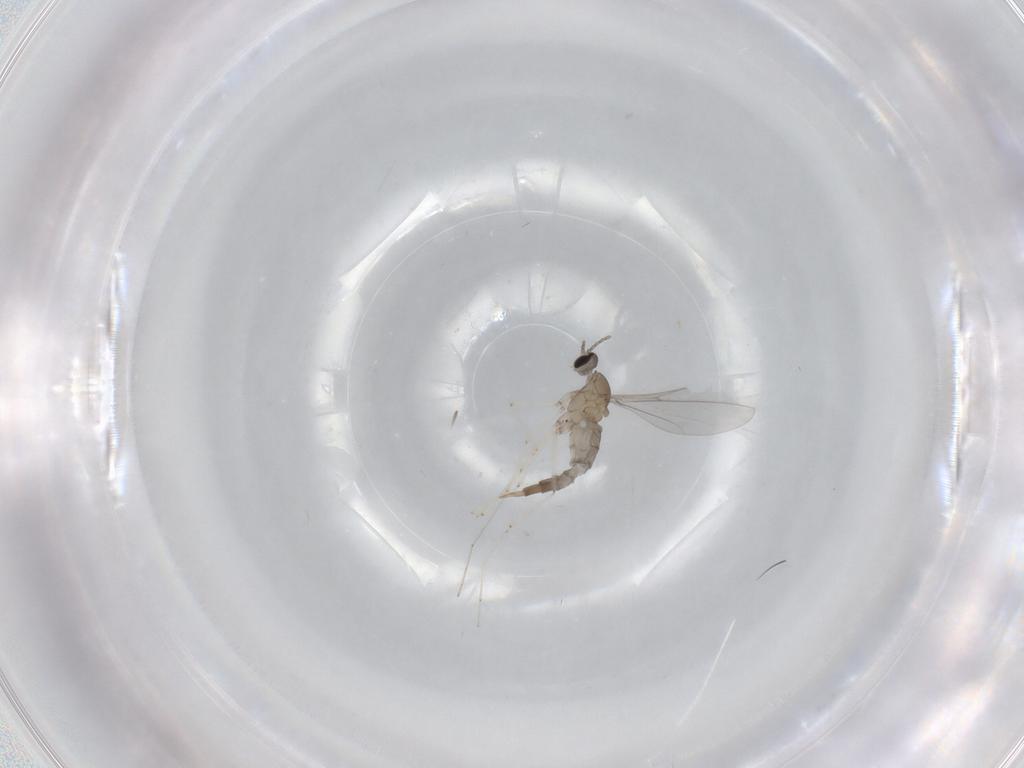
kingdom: Animalia
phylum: Arthropoda
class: Insecta
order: Diptera
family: Cecidomyiidae
